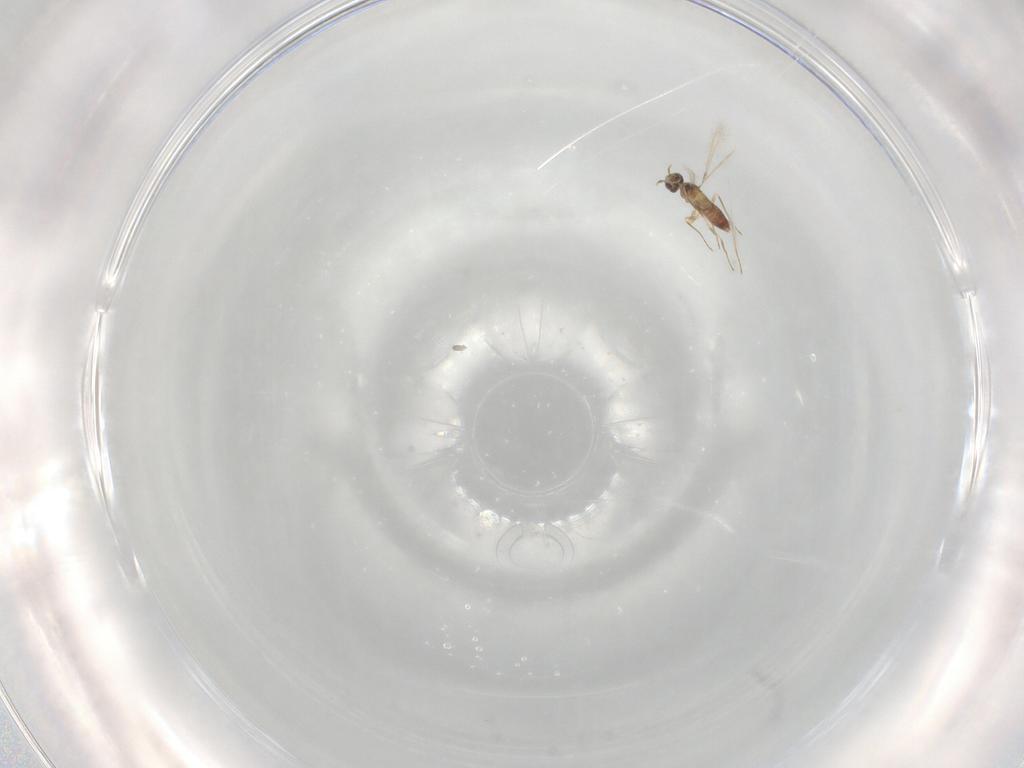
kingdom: Animalia
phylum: Arthropoda
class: Insecta
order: Hymenoptera
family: Mymaridae
